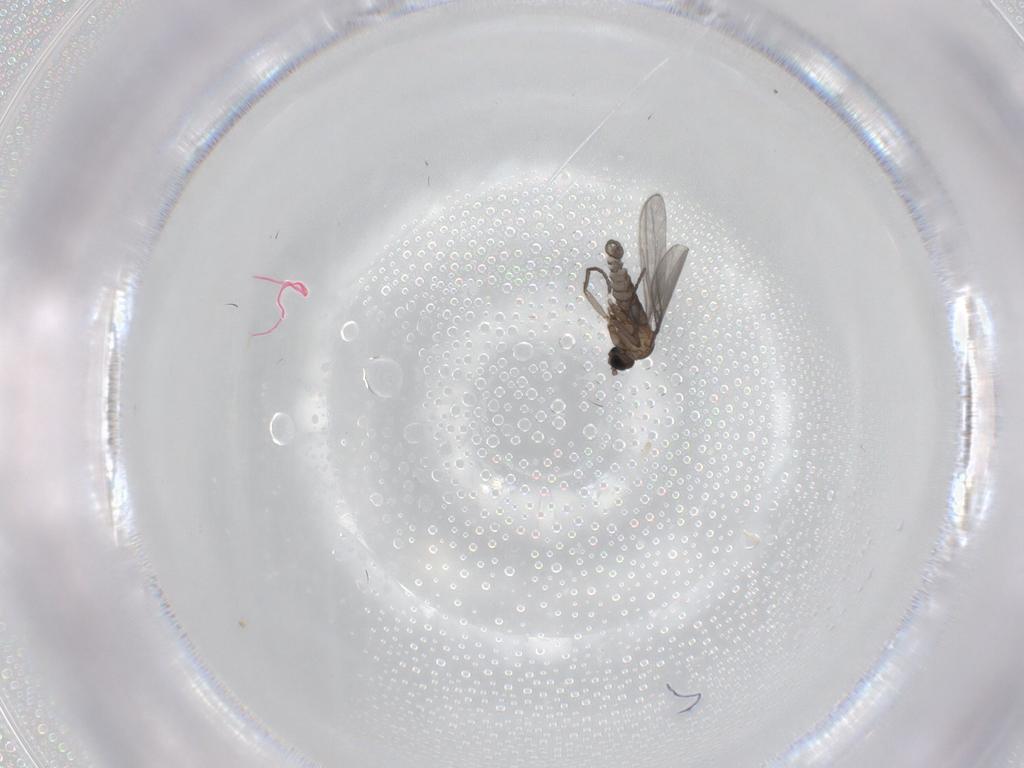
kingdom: Animalia
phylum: Arthropoda
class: Insecta
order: Diptera
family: Sciaridae
